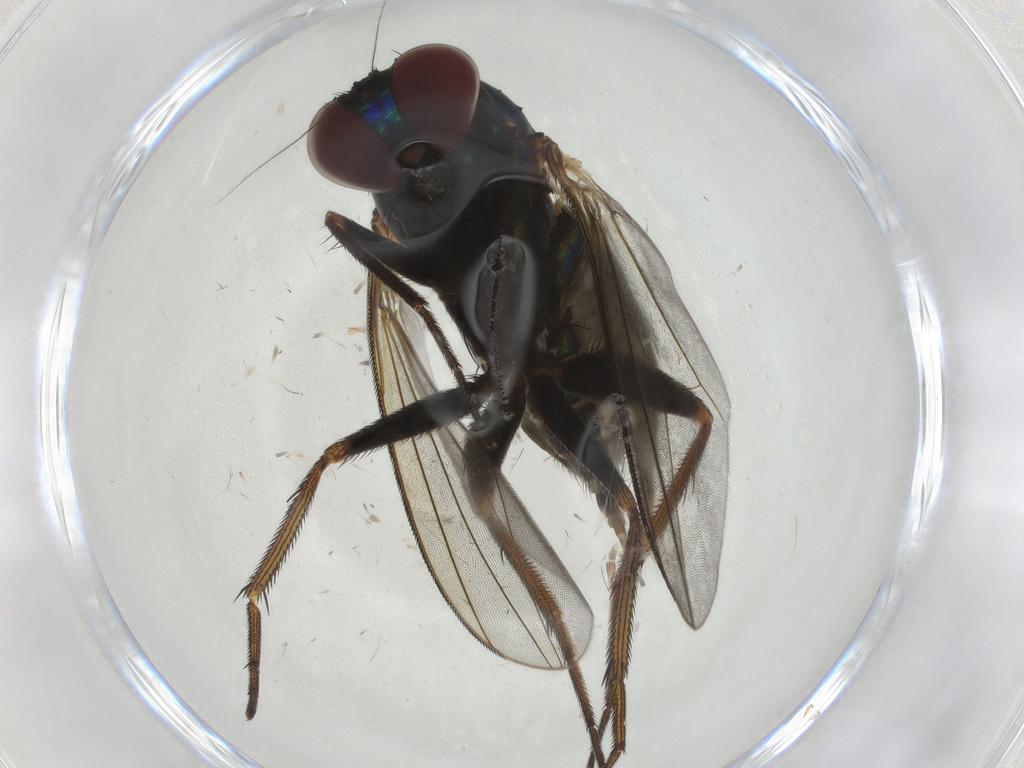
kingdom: Animalia
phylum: Arthropoda
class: Insecta
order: Diptera
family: Dolichopodidae
